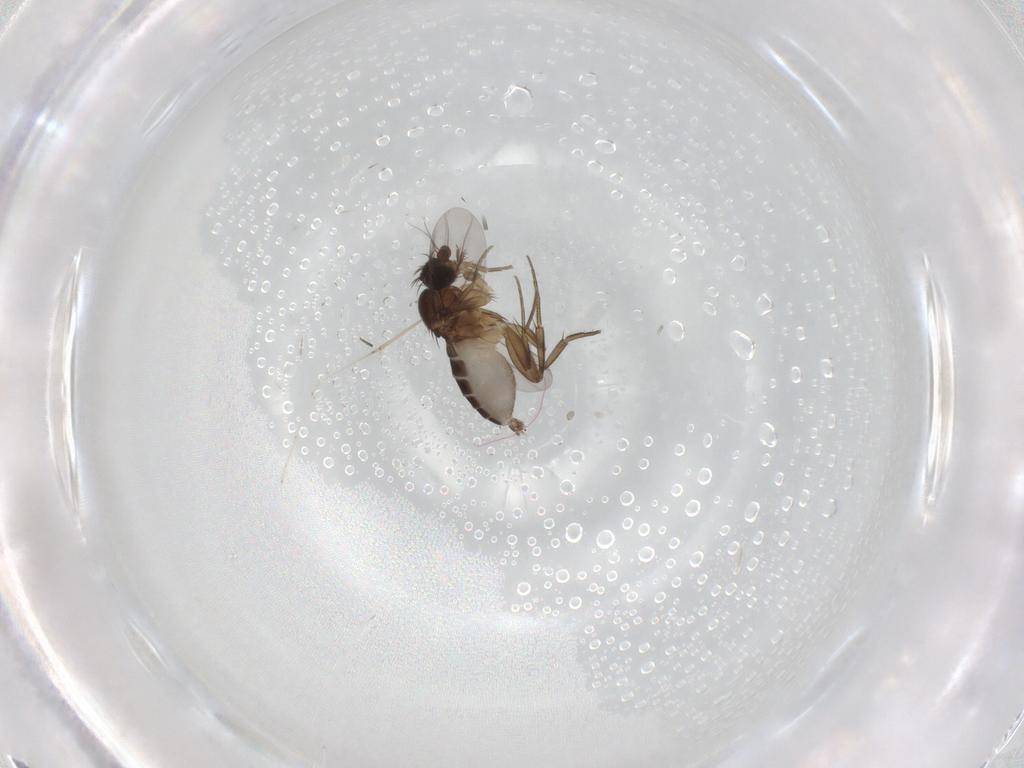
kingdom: Animalia
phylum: Arthropoda
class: Insecta
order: Diptera
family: Phoridae
